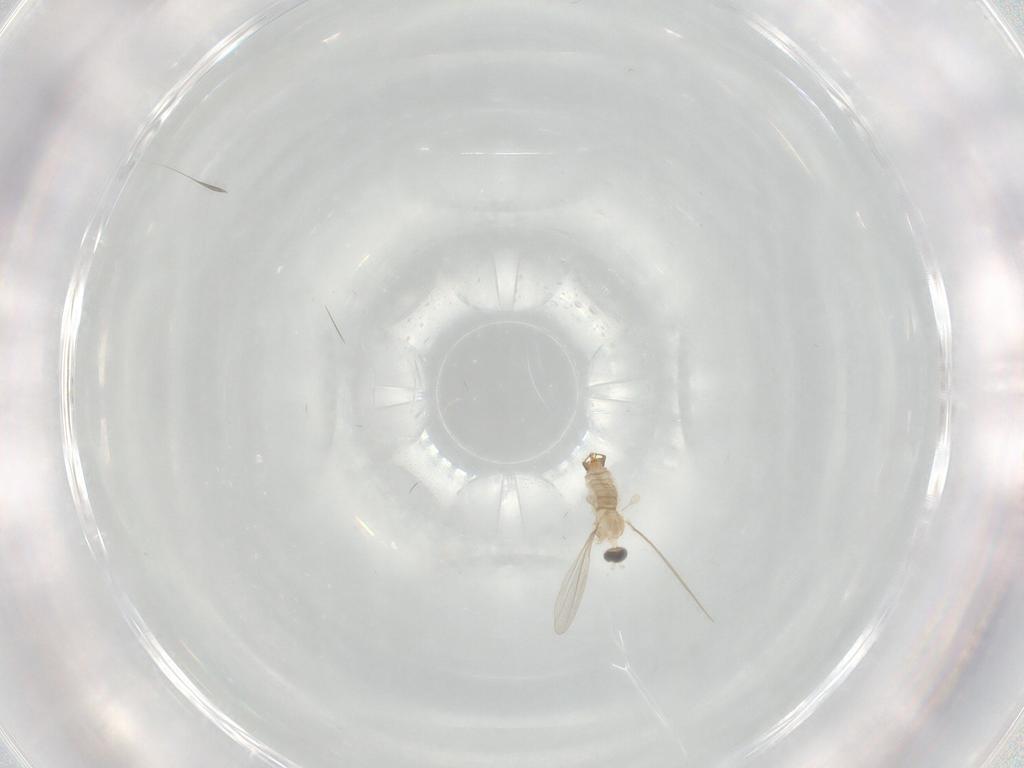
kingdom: Animalia
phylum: Arthropoda
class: Insecta
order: Diptera
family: Cecidomyiidae
